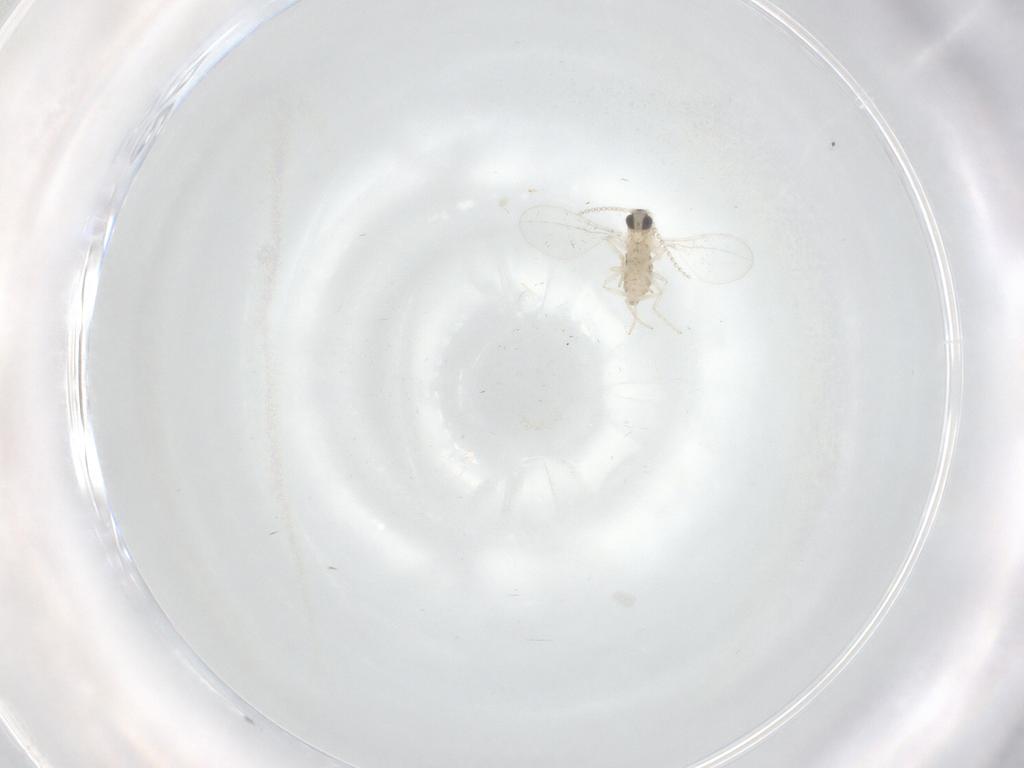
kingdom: Animalia
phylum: Arthropoda
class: Insecta
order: Diptera
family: Cecidomyiidae
